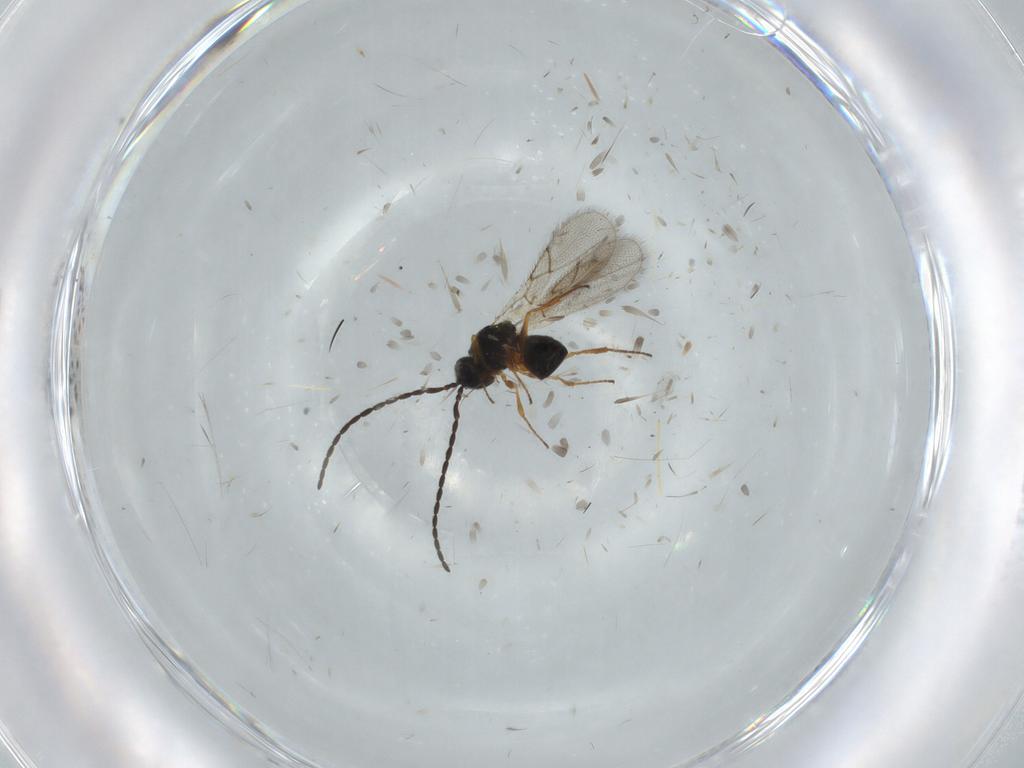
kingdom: Animalia
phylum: Arthropoda
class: Insecta
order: Hymenoptera
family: Figitidae
